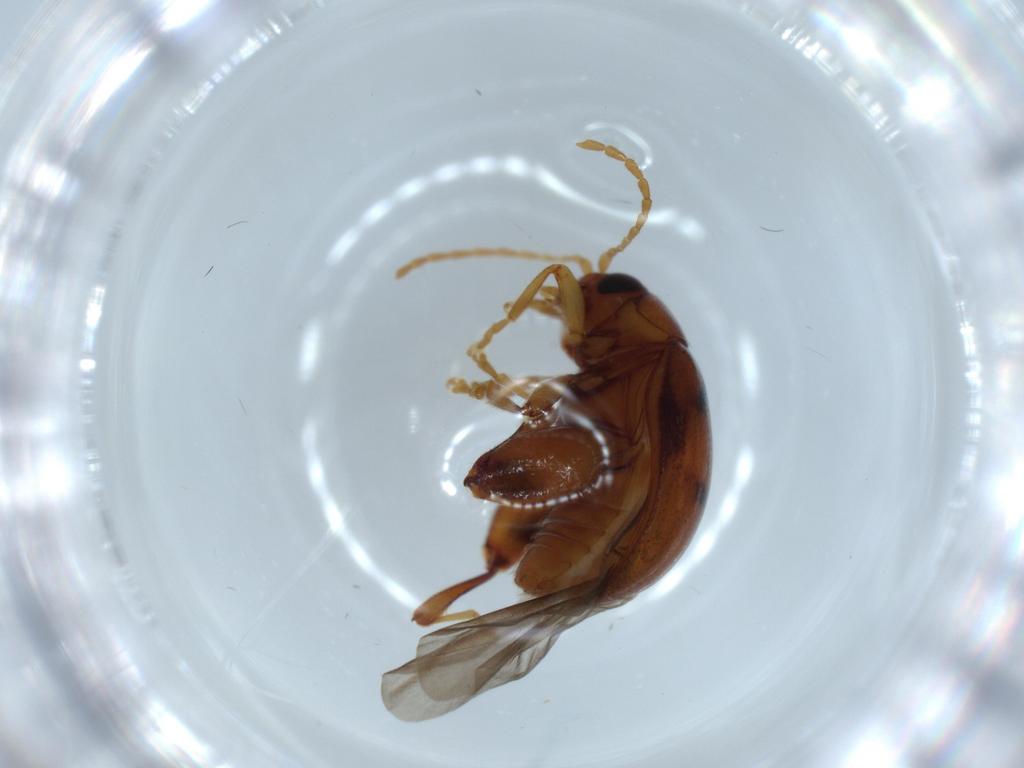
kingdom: Animalia
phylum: Arthropoda
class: Insecta
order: Coleoptera
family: Chrysomelidae
